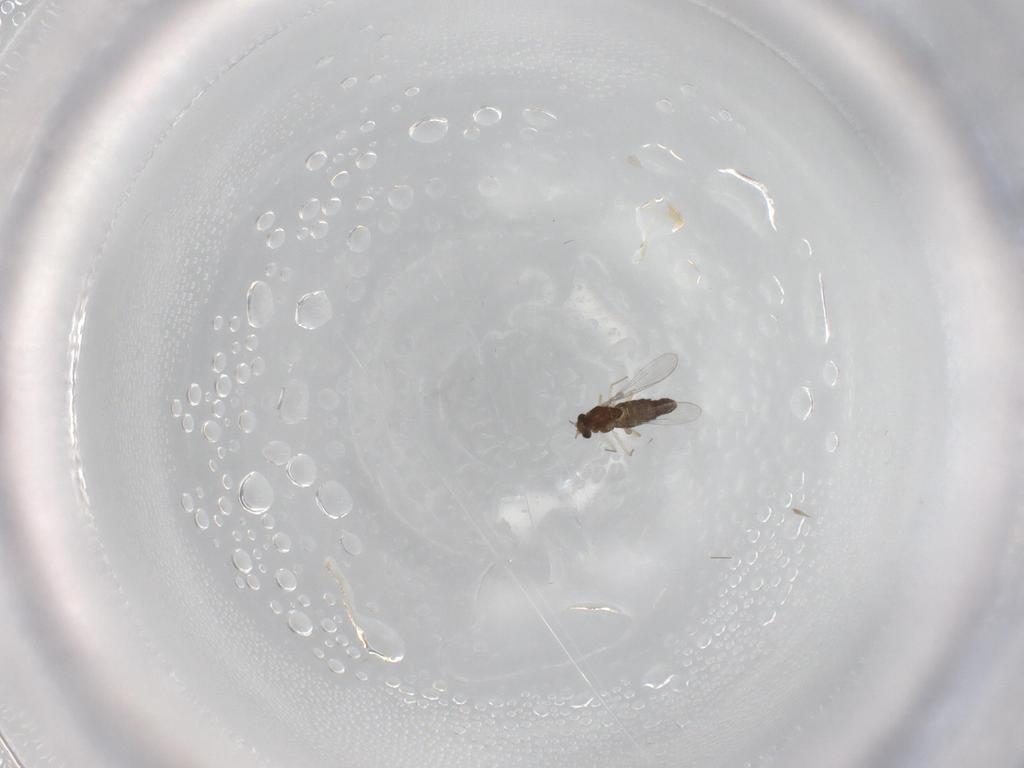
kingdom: Animalia
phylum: Arthropoda
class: Insecta
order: Diptera
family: Chironomidae
